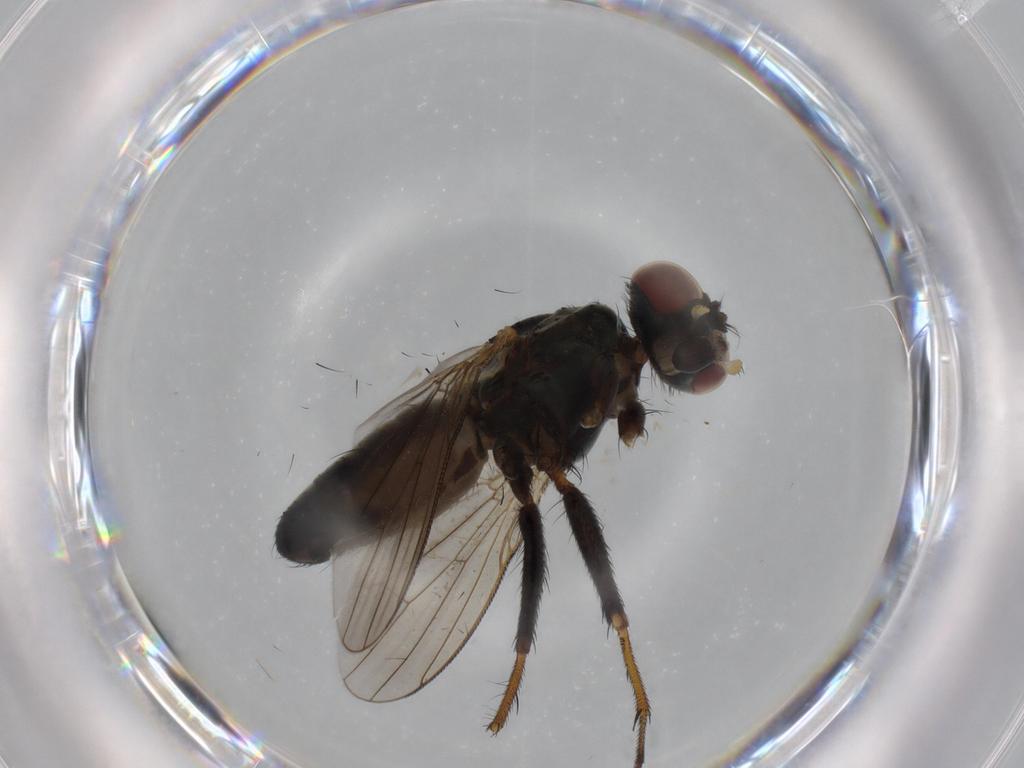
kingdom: Animalia
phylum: Arthropoda
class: Insecta
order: Diptera
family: Muscidae
